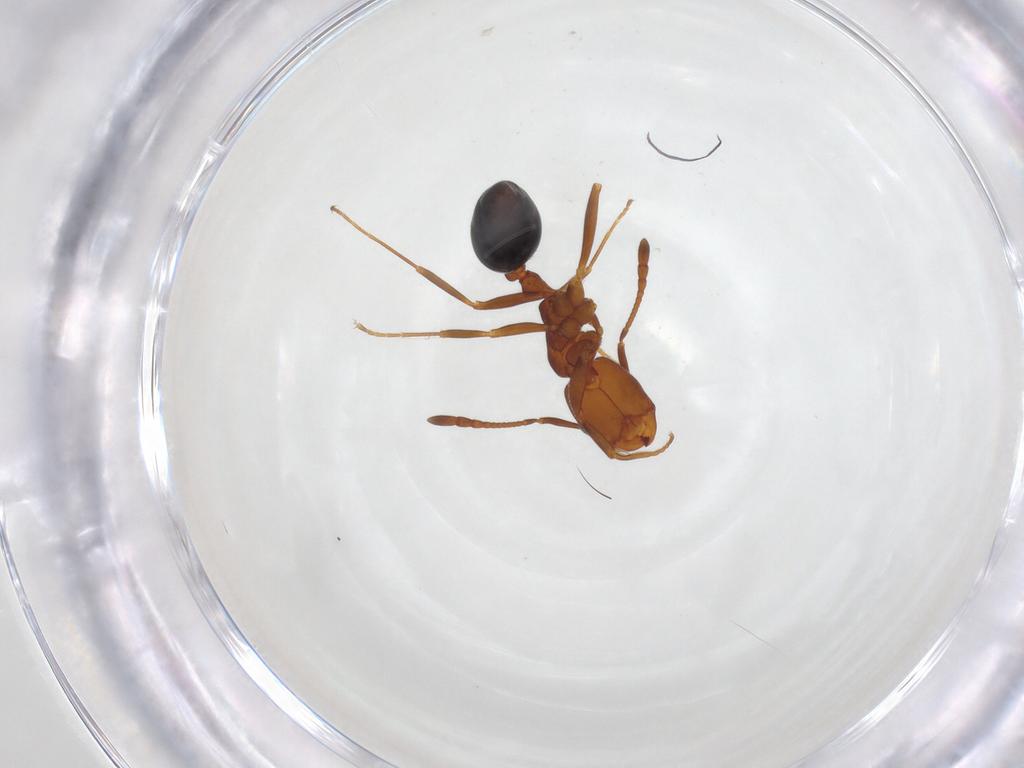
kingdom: Animalia
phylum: Arthropoda
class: Insecta
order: Hymenoptera
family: Formicidae
